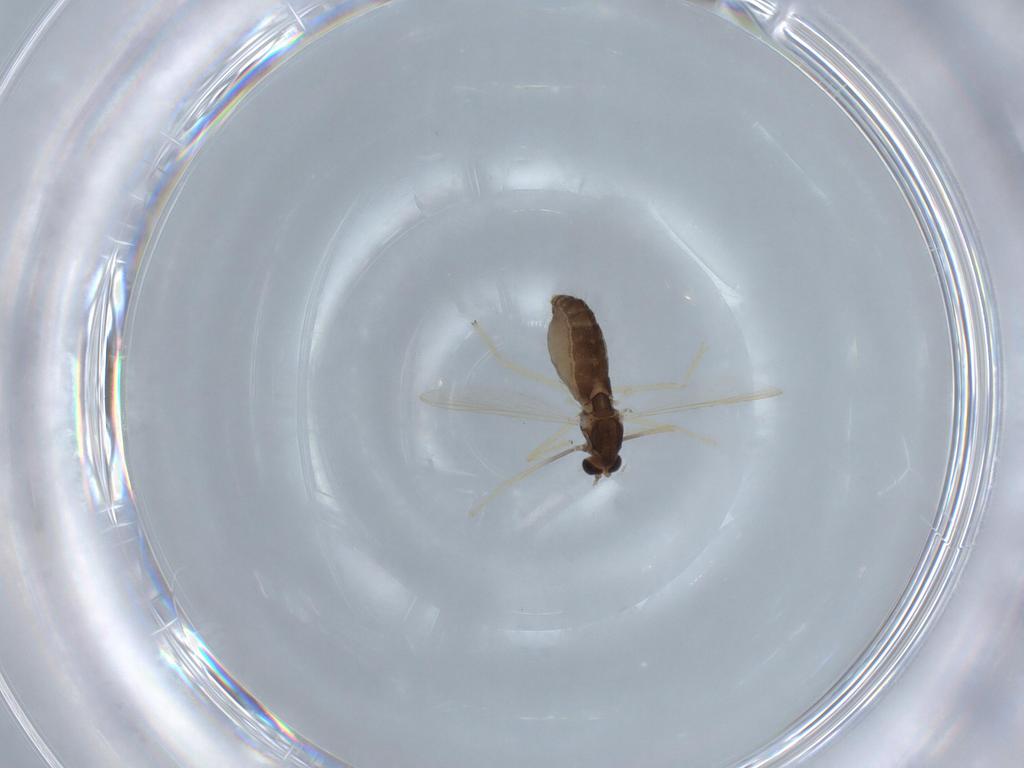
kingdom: Animalia
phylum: Arthropoda
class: Insecta
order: Diptera
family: Chironomidae
